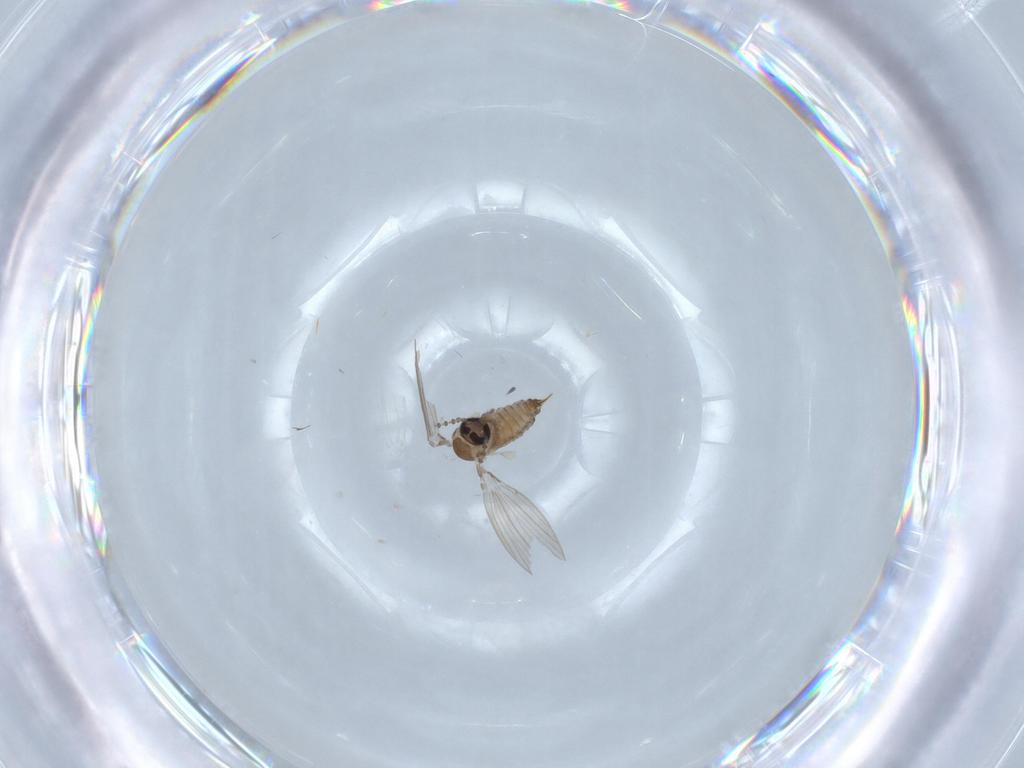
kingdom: Animalia
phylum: Arthropoda
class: Insecta
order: Diptera
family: Psychodidae
